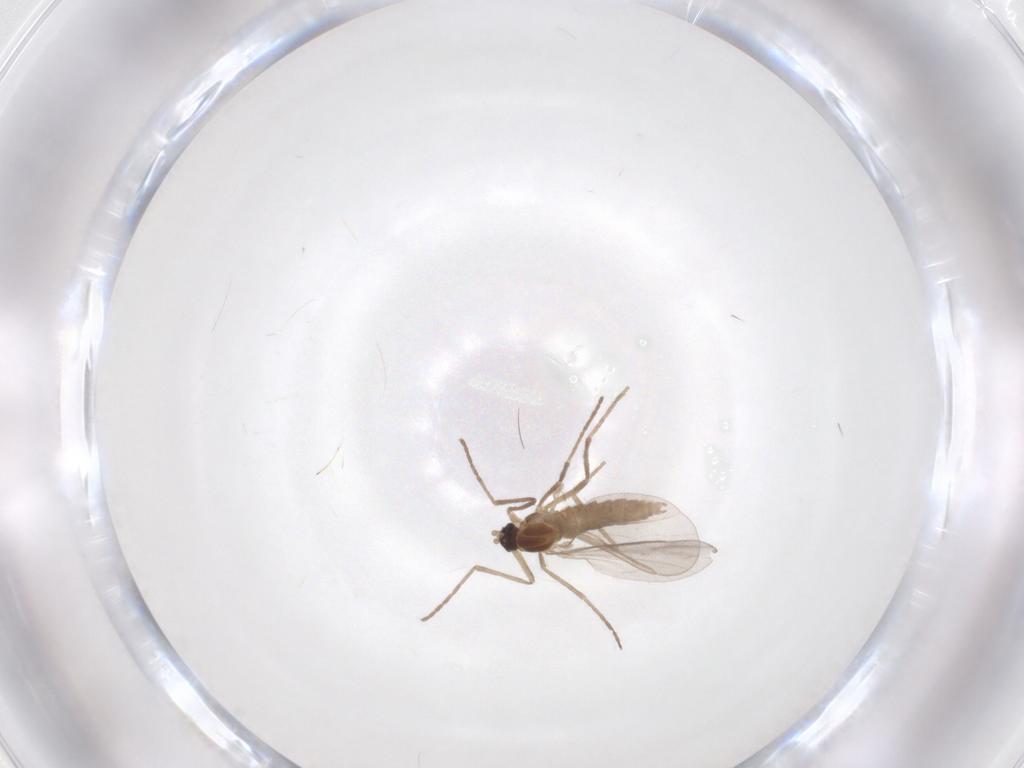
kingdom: Animalia
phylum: Arthropoda
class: Insecta
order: Diptera
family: Cecidomyiidae
